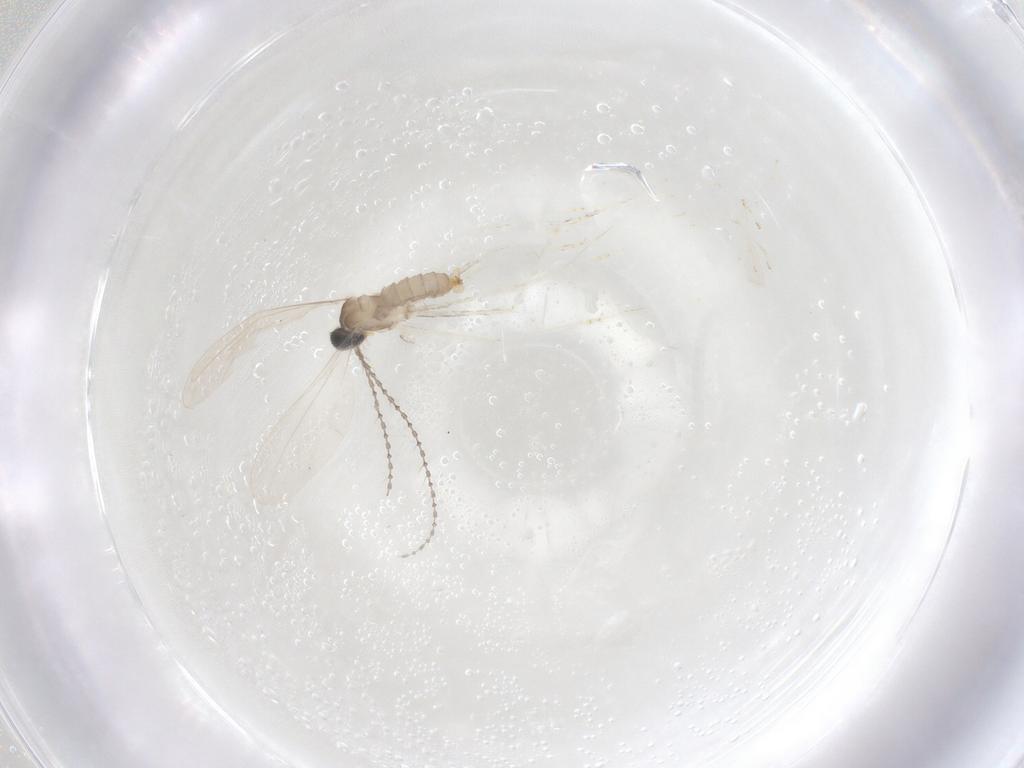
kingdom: Animalia
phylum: Arthropoda
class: Insecta
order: Diptera
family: Cecidomyiidae
